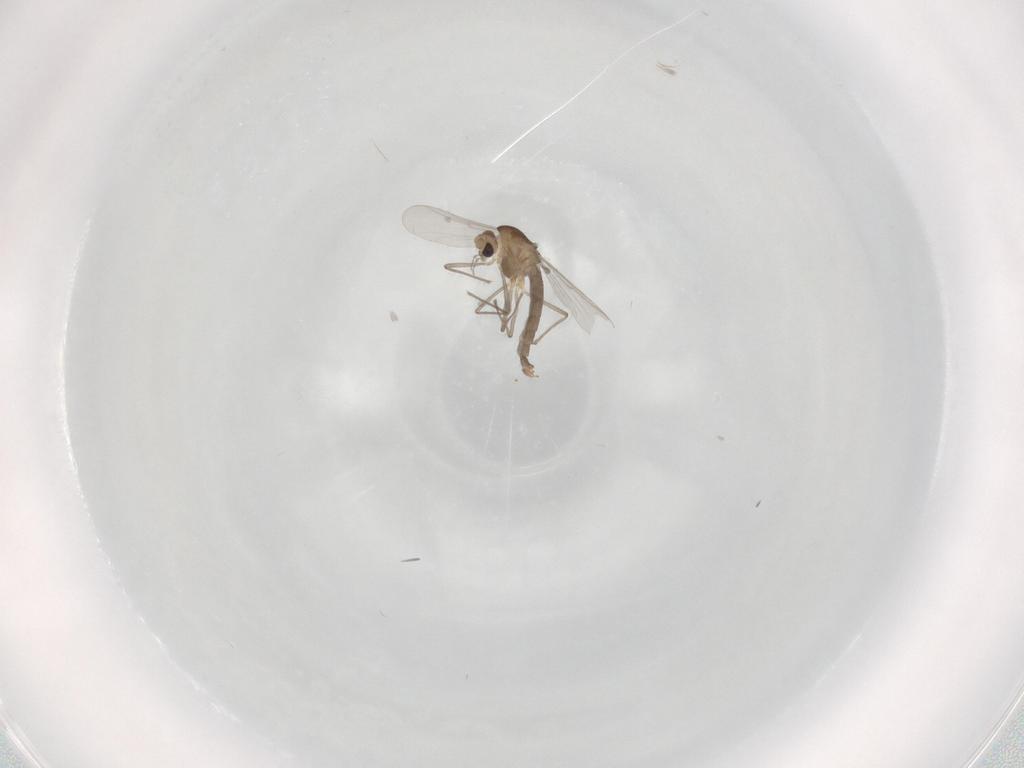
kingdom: Animalia
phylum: Arthropoda
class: Insecta
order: Diptera
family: Chironomidae
